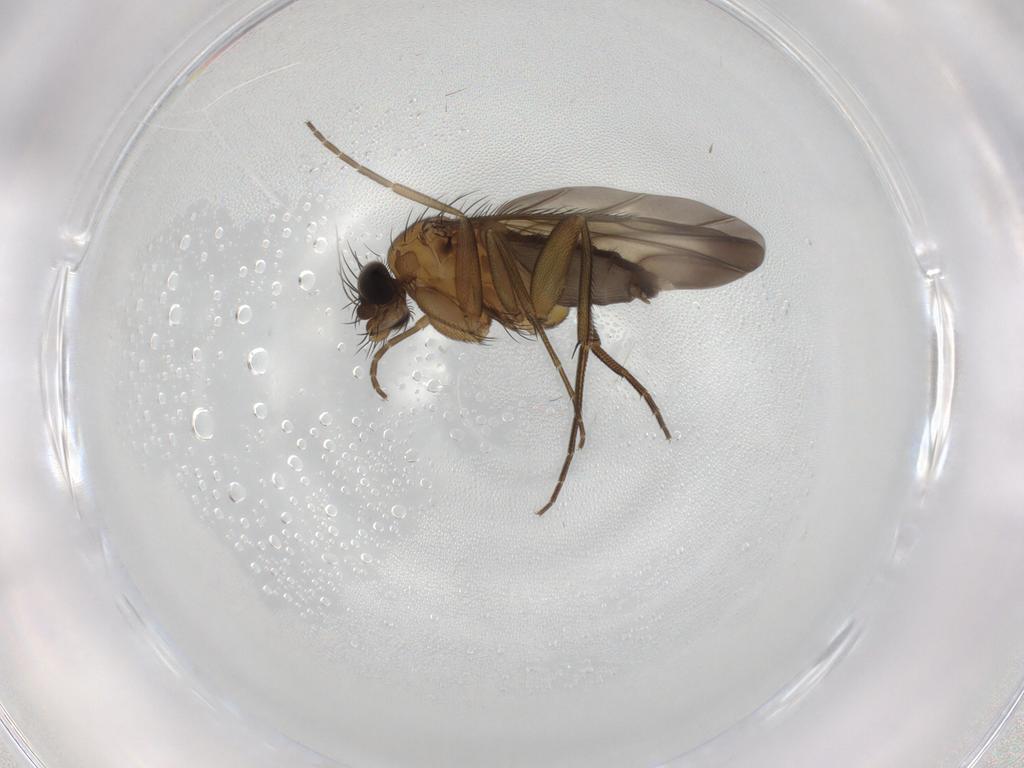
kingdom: Animalia
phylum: Arthropoda
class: Insecta
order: Diptera
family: Phoridae
